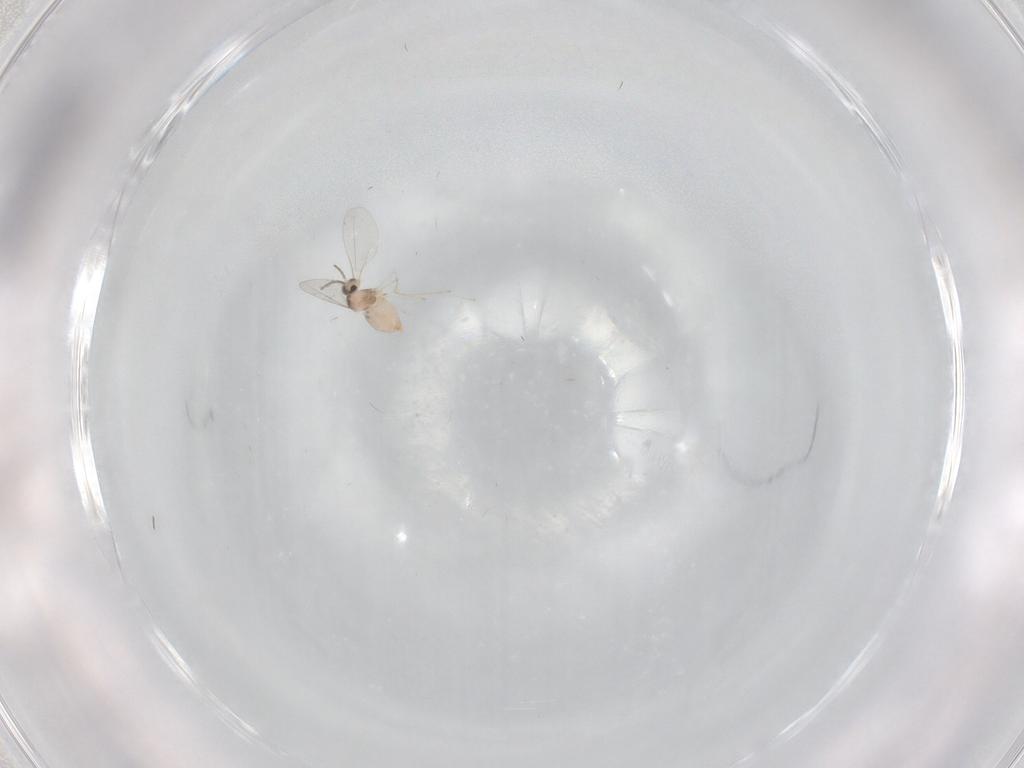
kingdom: Animalia
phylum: Arthropoda
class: Insecta
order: Diptera
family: Cecidomyiidae
